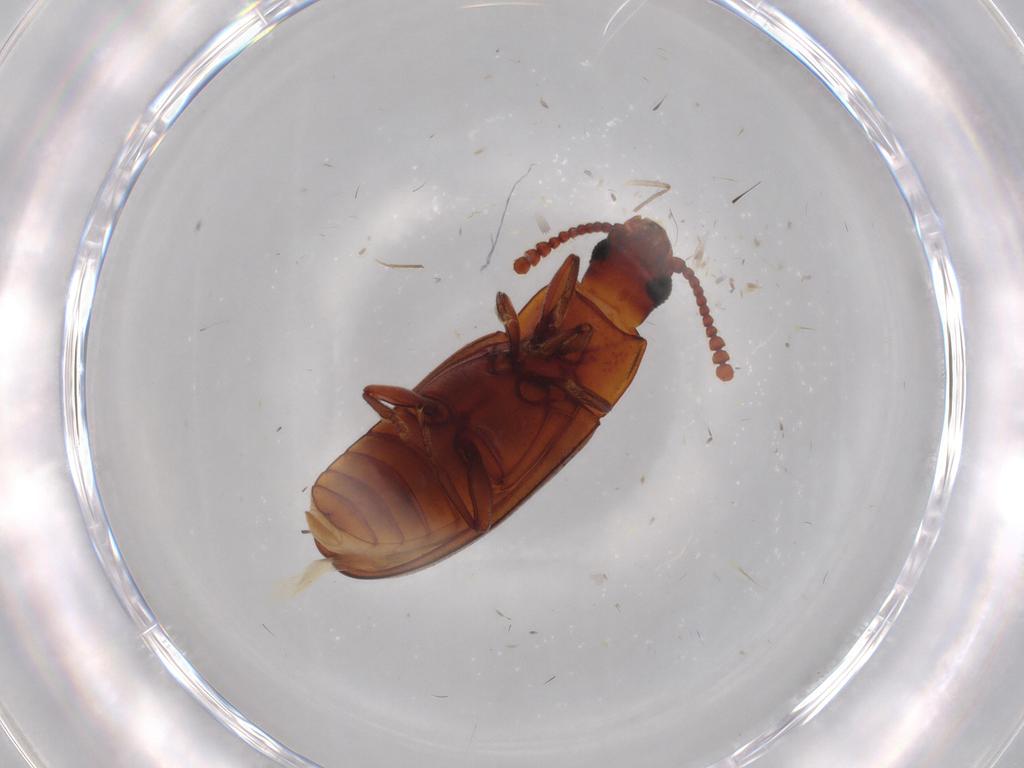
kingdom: Animalia
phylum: Arthropoda
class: Insecta
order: Coleoptera
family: Erotylidae
